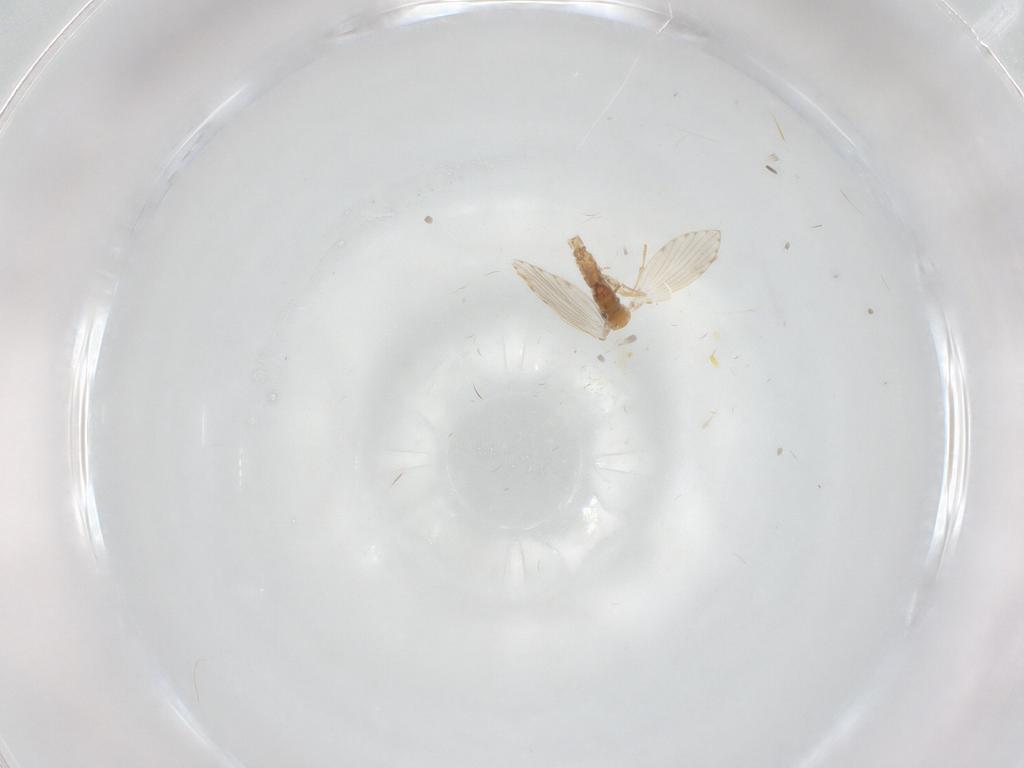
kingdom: Animalia
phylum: Arthropoda
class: Insecta
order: Diptera
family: Psychodidae
